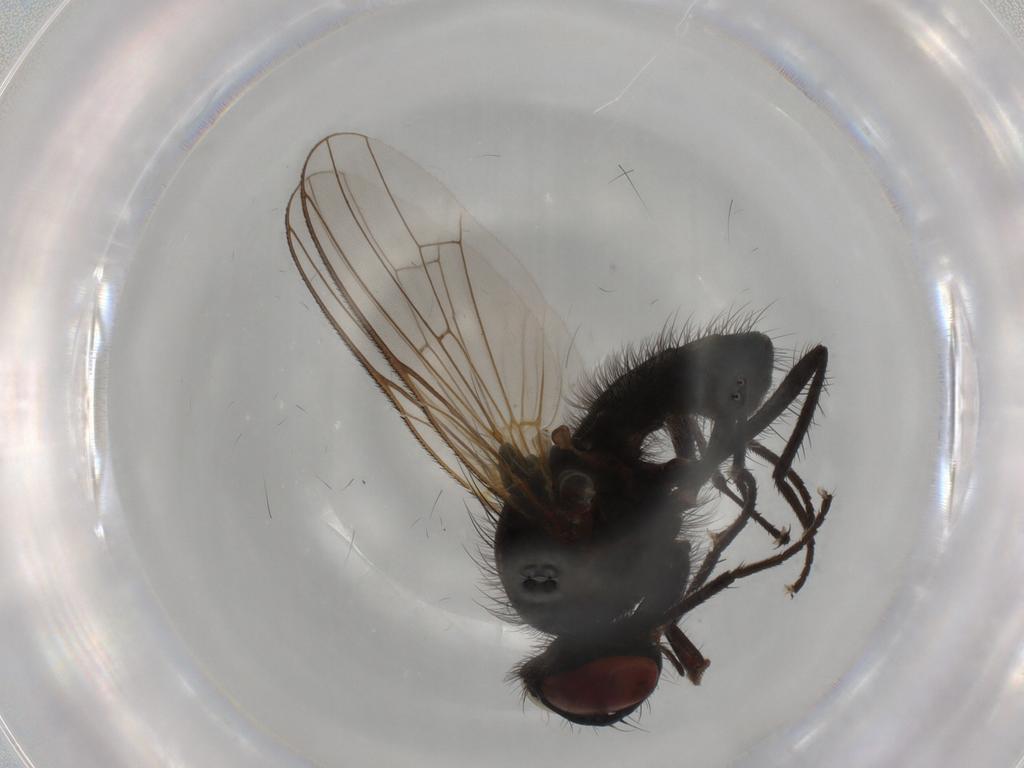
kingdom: Animalia
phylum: Arthropoda
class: Insecta
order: Diptera
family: Anthomyiidae
